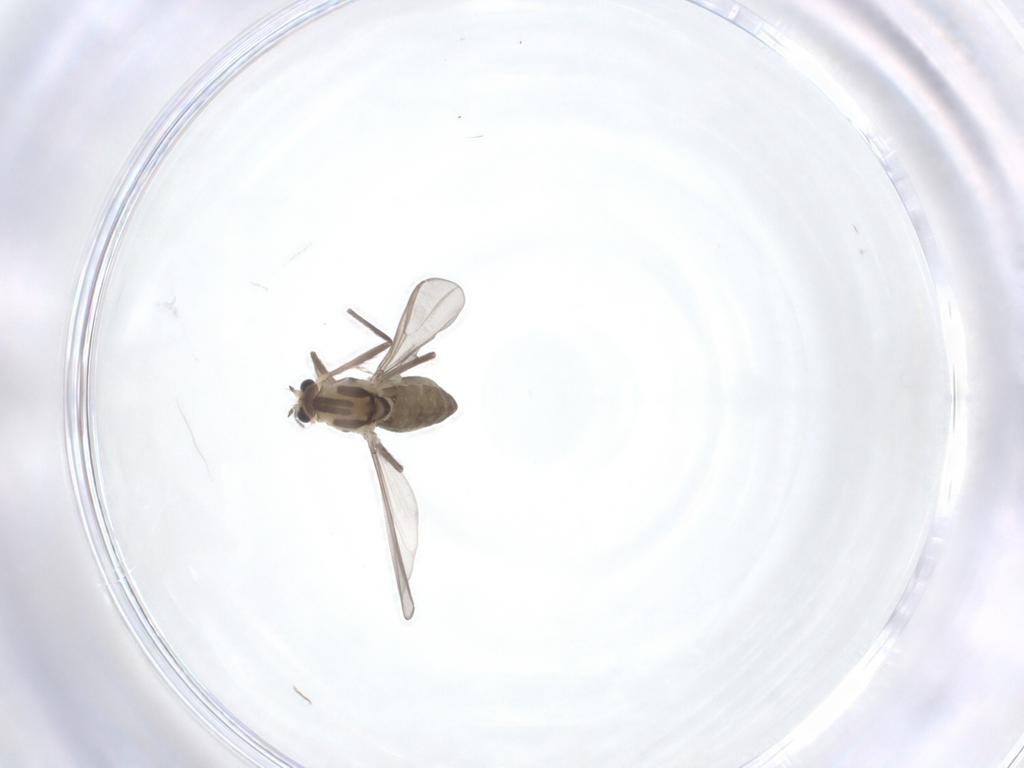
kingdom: Animalia
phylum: Arthropoda
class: Insecta
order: Diptera
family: Chironomidae
